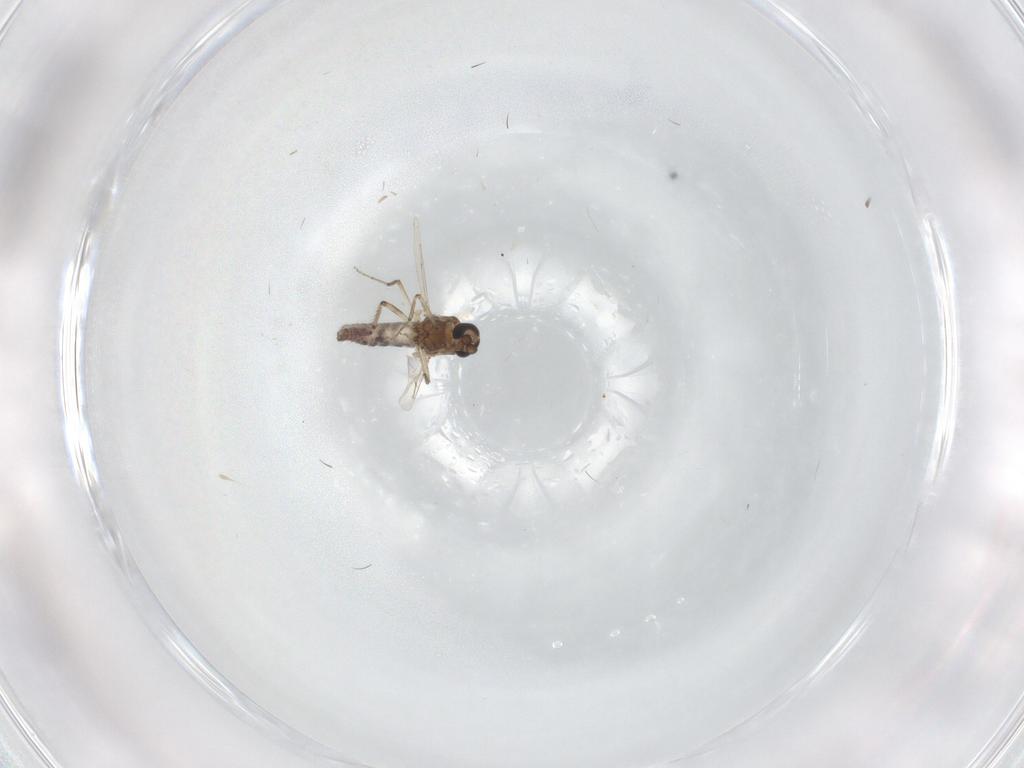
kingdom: Animalia
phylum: Arthropoda
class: Insecta
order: Diptera
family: Ceratopogonidae
